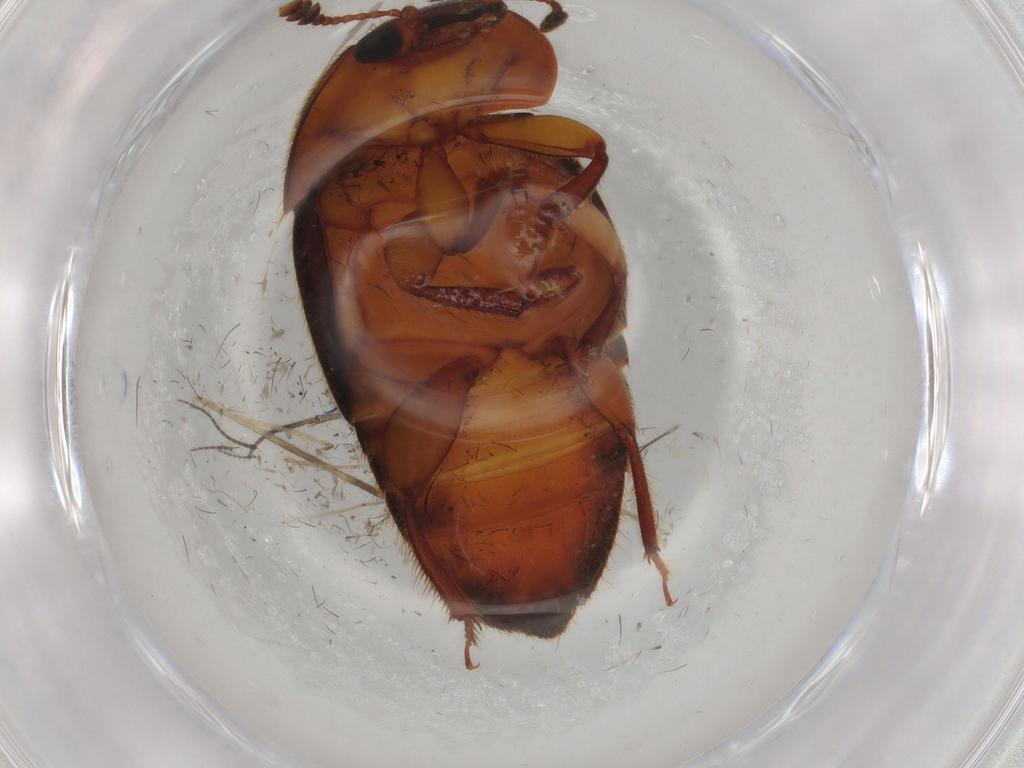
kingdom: Animalia
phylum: Arthropoda
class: Insecta
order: Coleoptera
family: Nitidulidae
